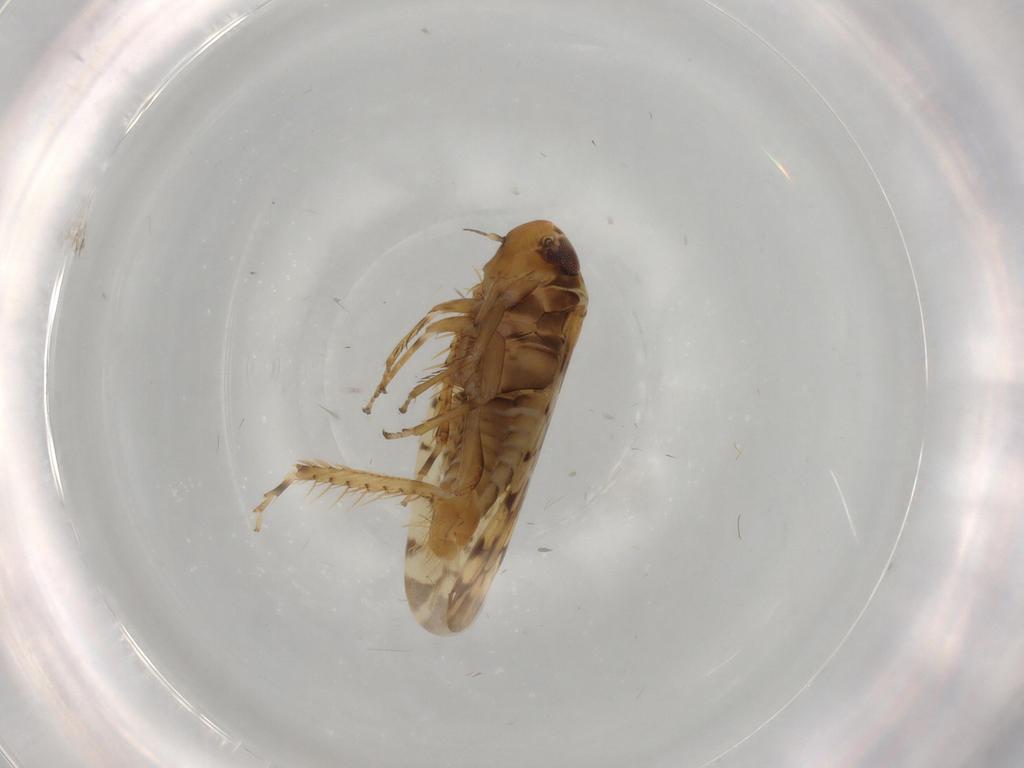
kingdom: Animalia
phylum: Arthropoda
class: Insecta
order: Hemiptera
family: Cicadellidae
